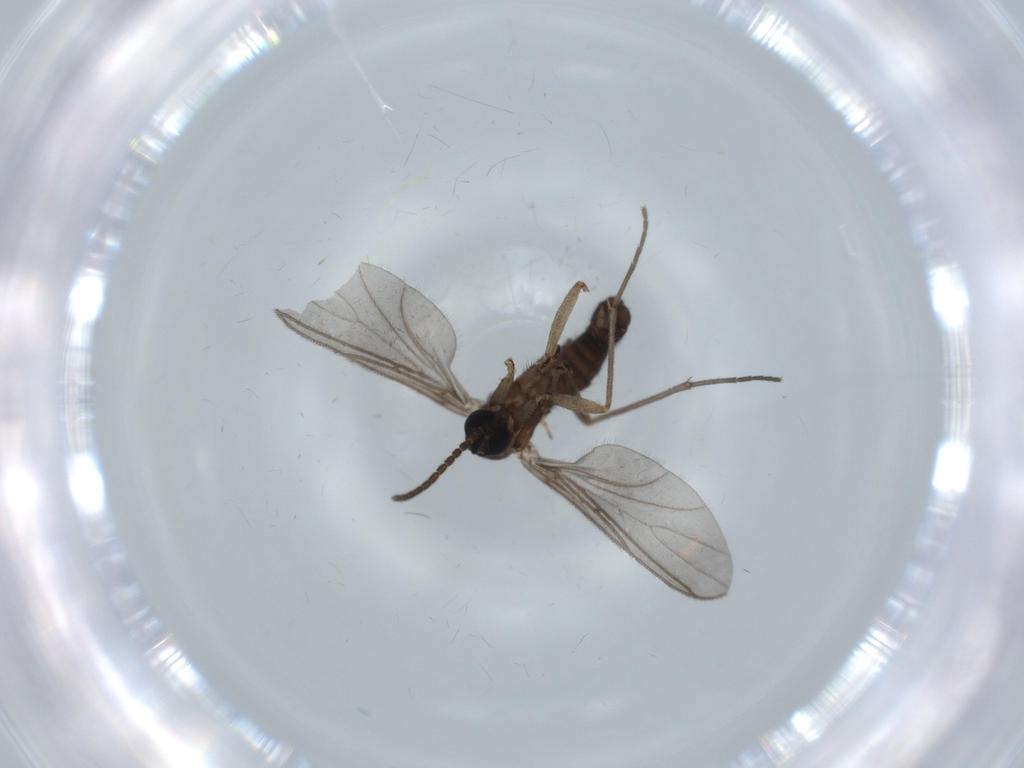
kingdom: Animalia
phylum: Arthropoda
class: Insecta
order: Diptera
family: Sciaridae
